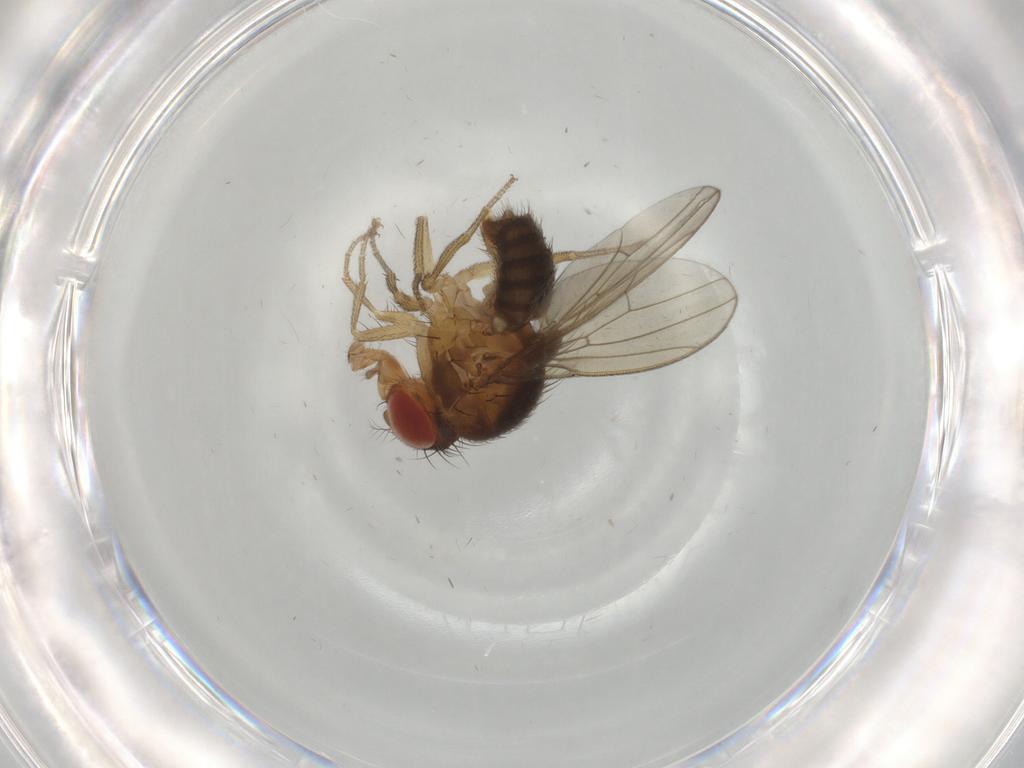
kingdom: Animalia
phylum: Arthropoda
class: Insecta
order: Diptera
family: Drosophilidae
